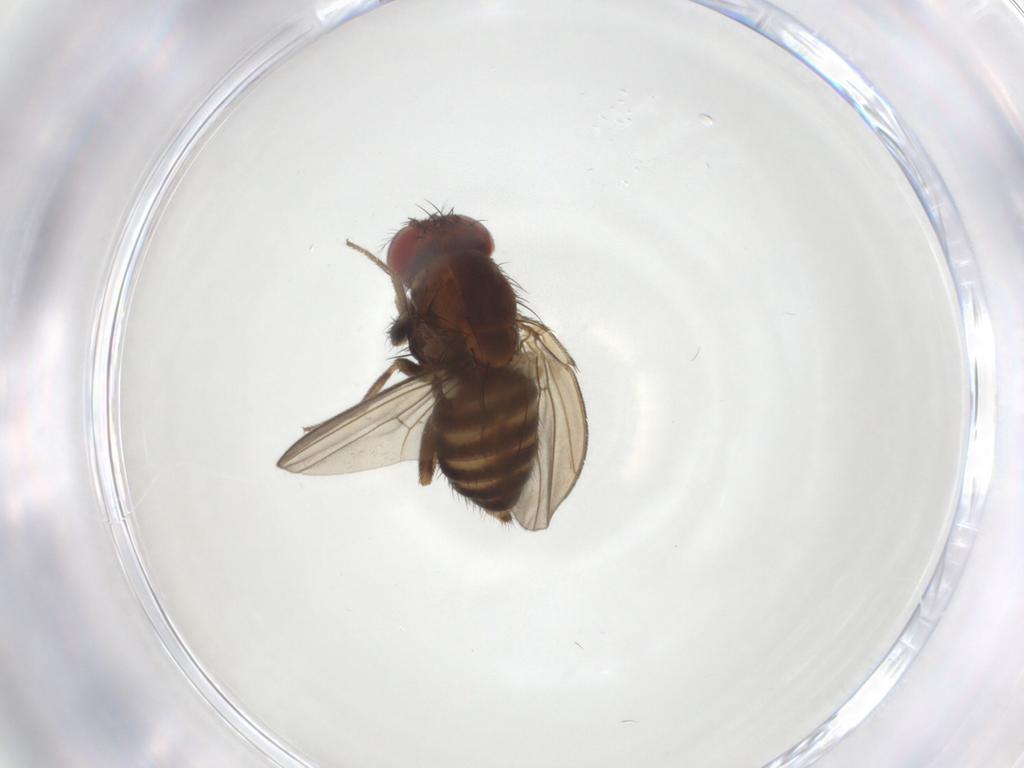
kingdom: Animalia
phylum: Arthropoda
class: Insecta
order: Diptera
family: Drosophilidae
